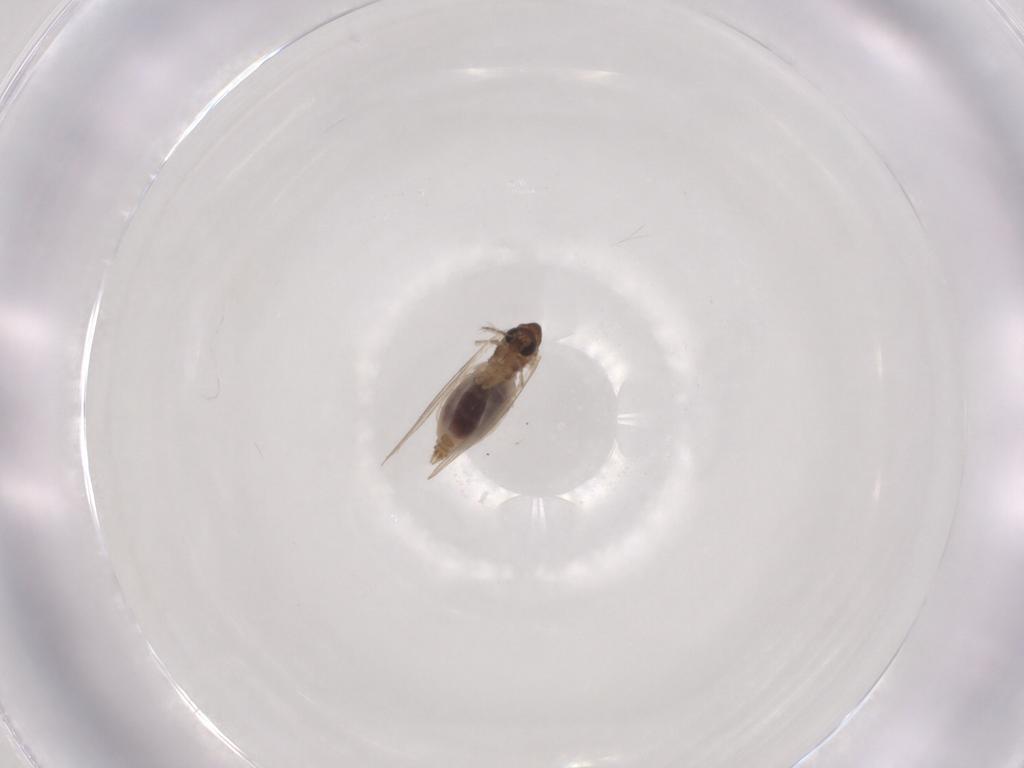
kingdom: Animalia
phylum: Arthropoda
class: Insecta
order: Diptera
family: Psychodidae
